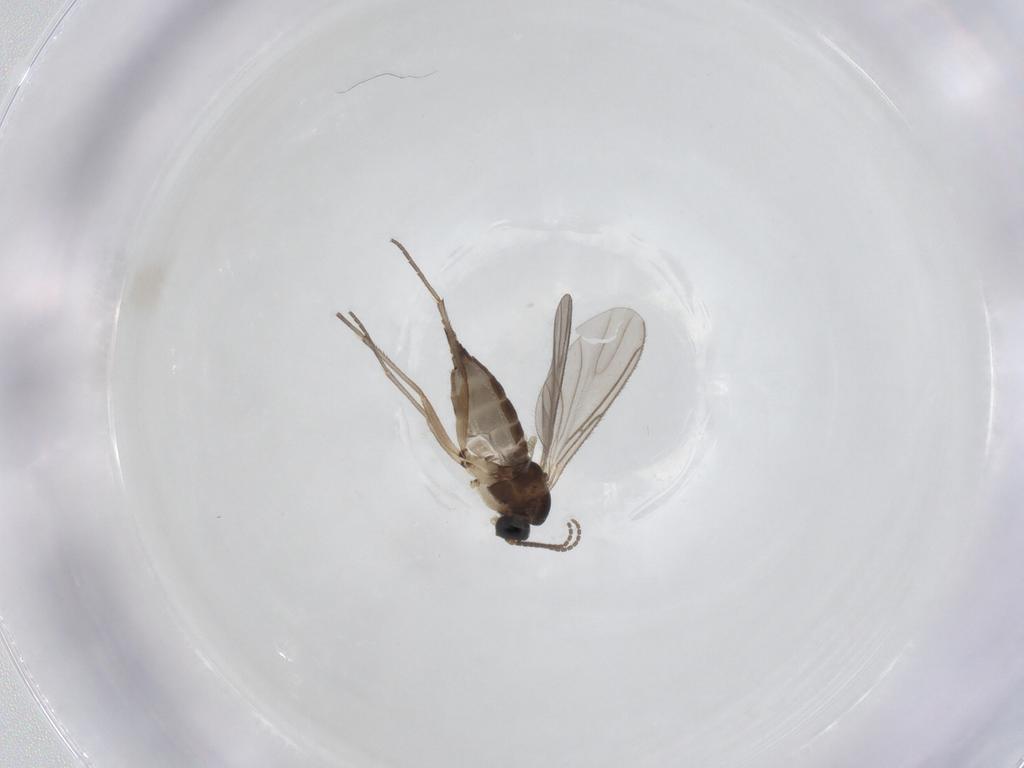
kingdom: Animalia
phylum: Arthropoda
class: Insecta
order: Diptera
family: Sciaridae
